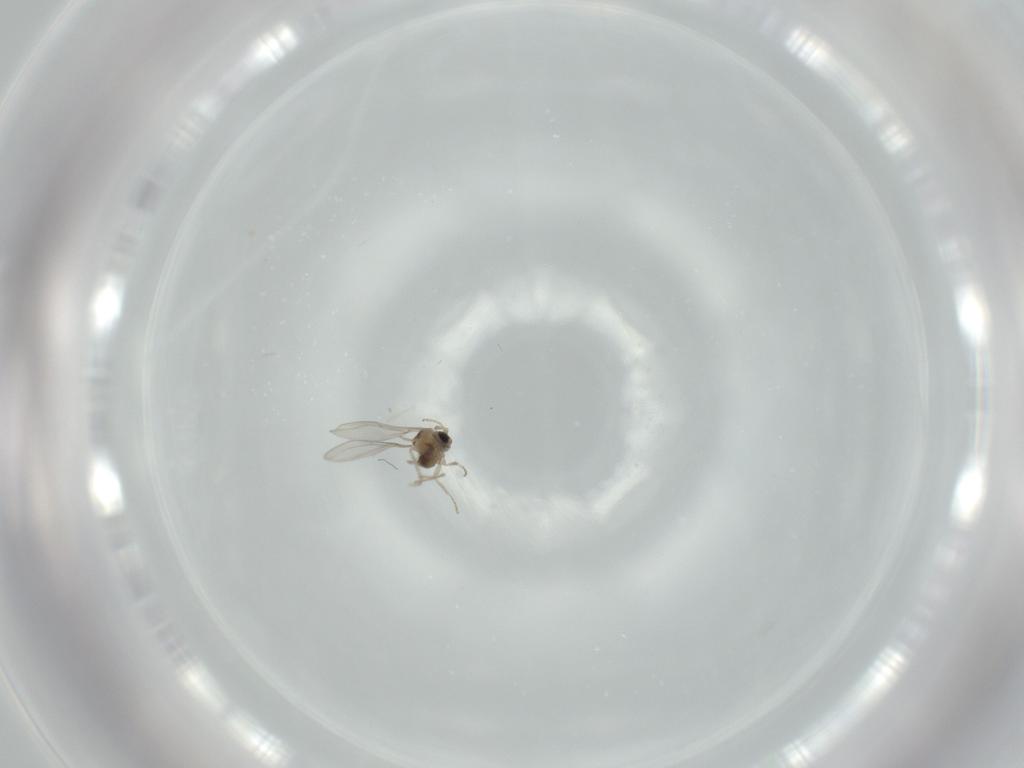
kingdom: Animalia
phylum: Arthropoda
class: Insecta
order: Diptera
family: Cecidomyiidae
